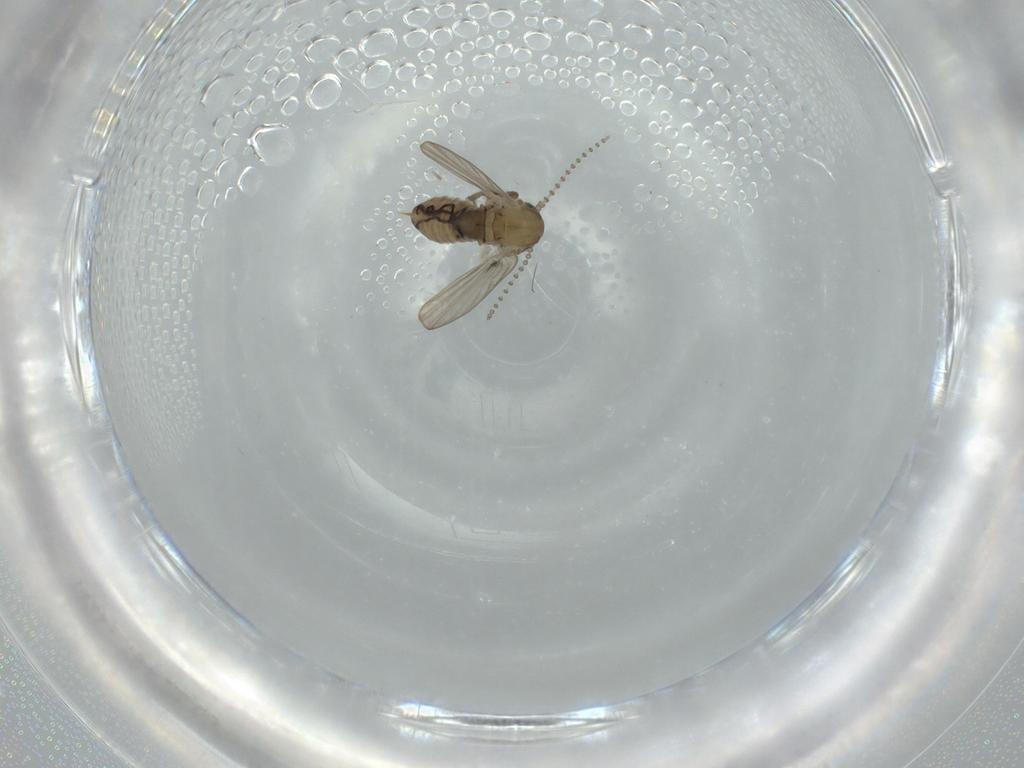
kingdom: Animalia
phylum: Arthropoda
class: Insecta
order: Diptera
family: Psychodidae
